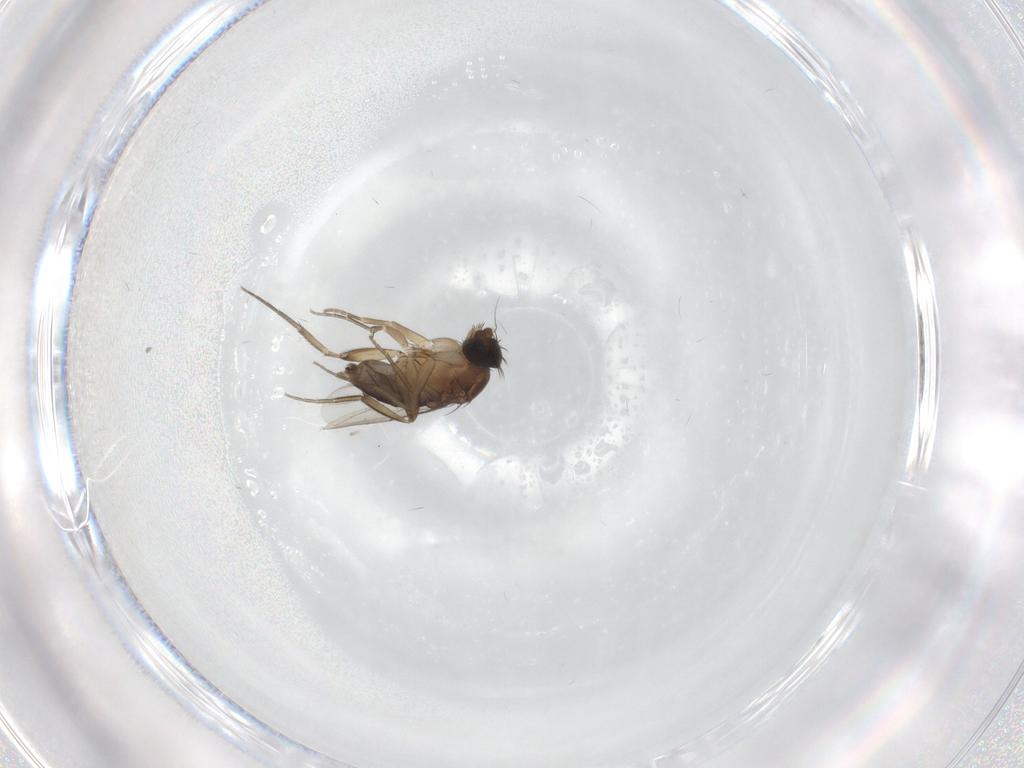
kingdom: Animalia
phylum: Arthropoda
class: Insecta
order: Diptera
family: Phoridae
